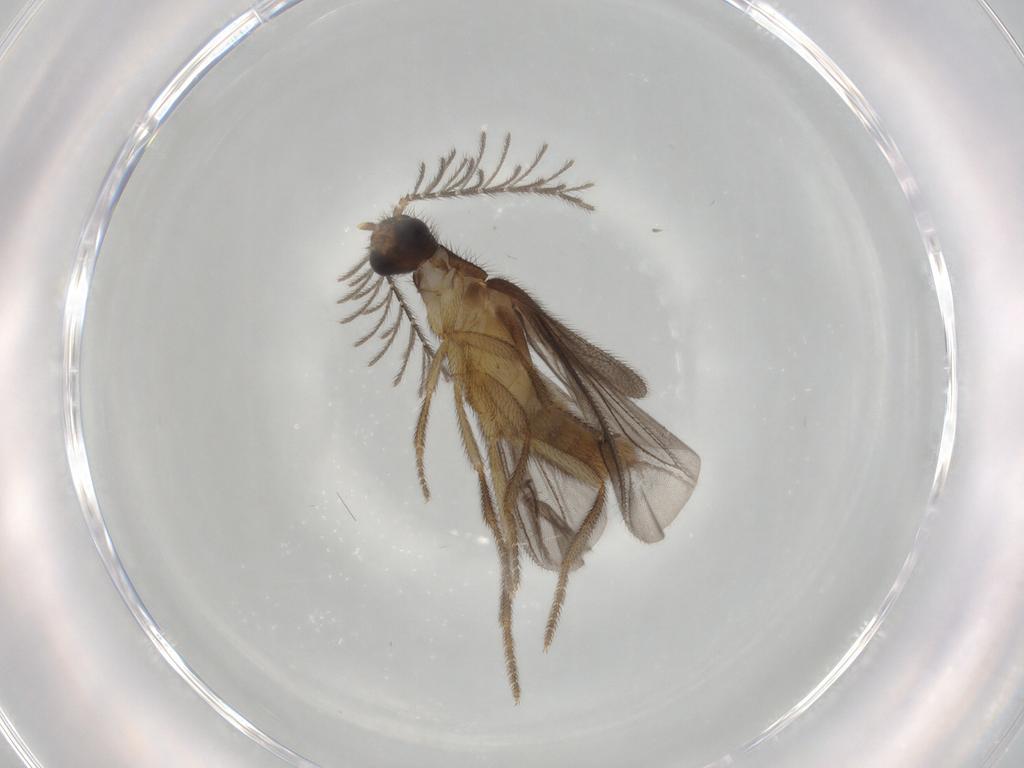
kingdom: Animalia
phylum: Arthropoda
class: Insecta
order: Coleoptera
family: Phengodidae
